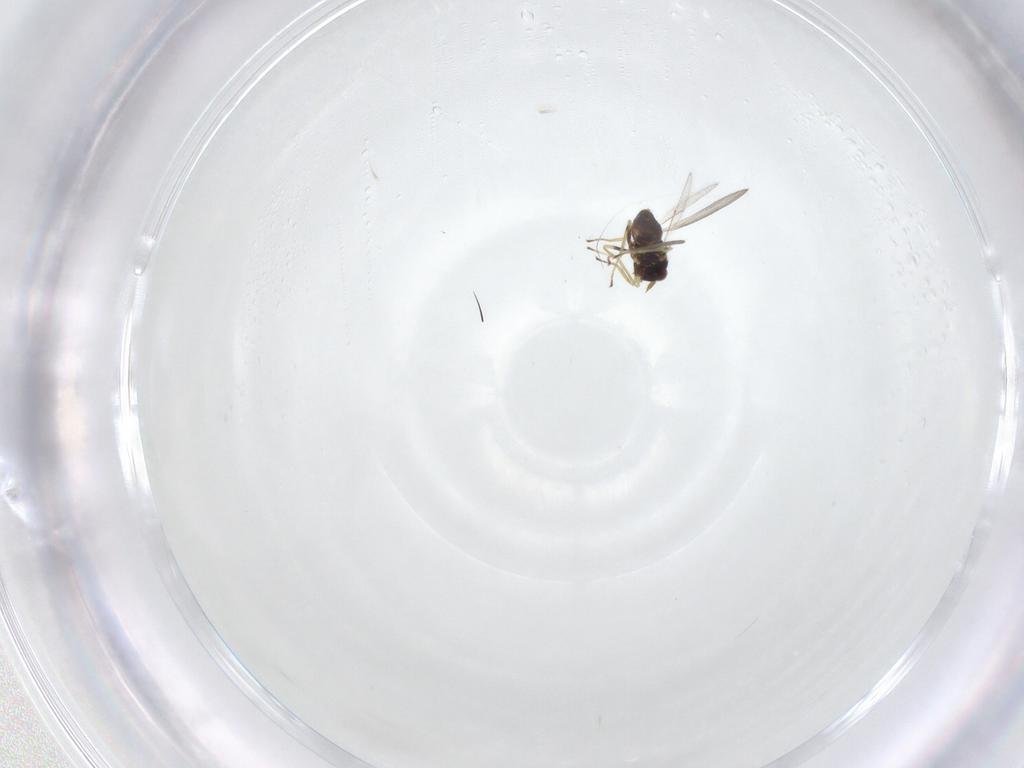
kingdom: Animalia
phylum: Arthropoda
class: Insecta
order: Hymenoptera
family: Eulophidae
